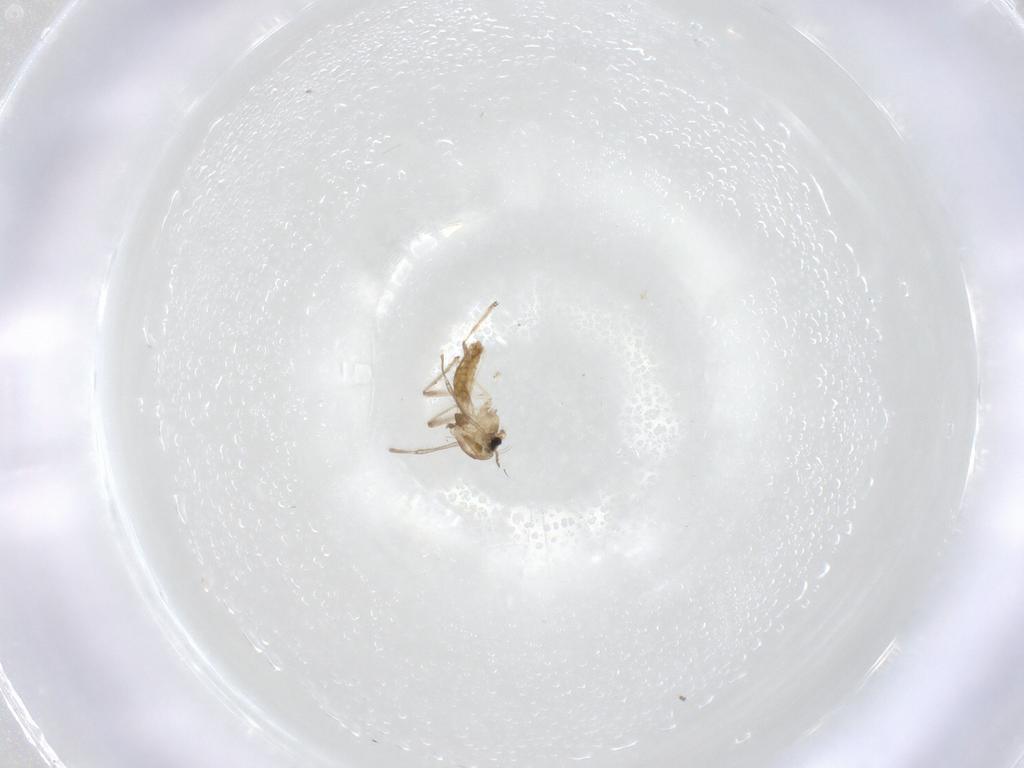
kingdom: Animalia
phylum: Arthropoda
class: Insecta
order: Diptera
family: Chironomidae
